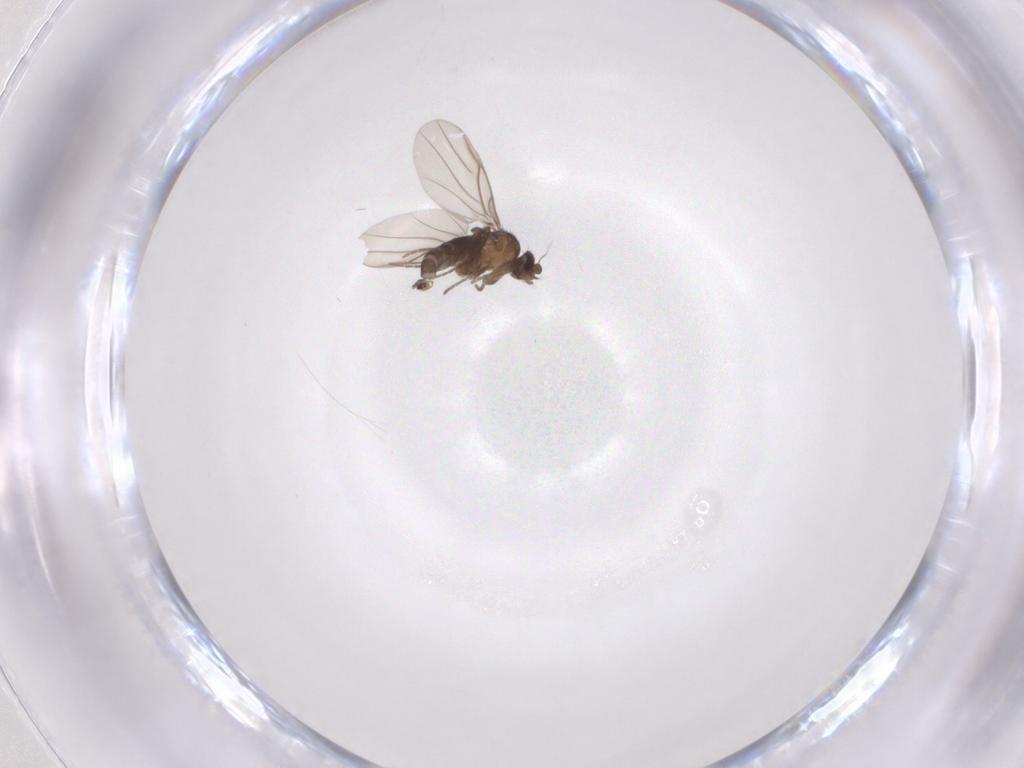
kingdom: Animalia
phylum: Arthropoda
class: Insecta
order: Diptera
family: Phoridae
